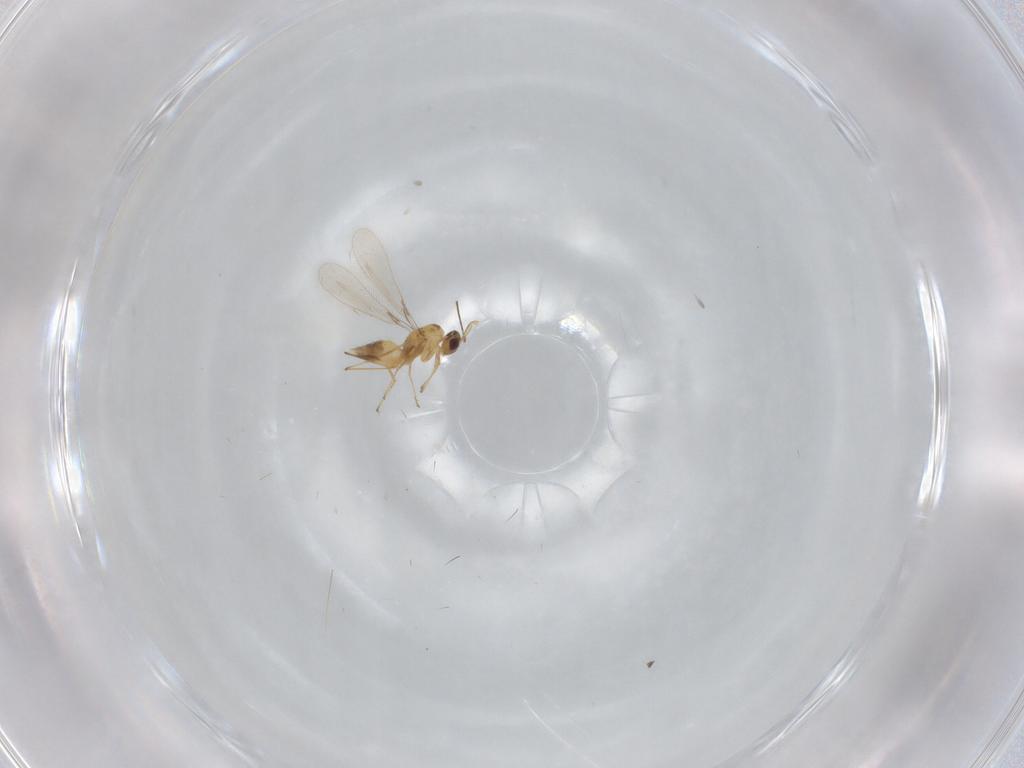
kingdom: Animalia
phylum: Arthropoda
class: Insecta
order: Hymenoptera
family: Mymaridae
